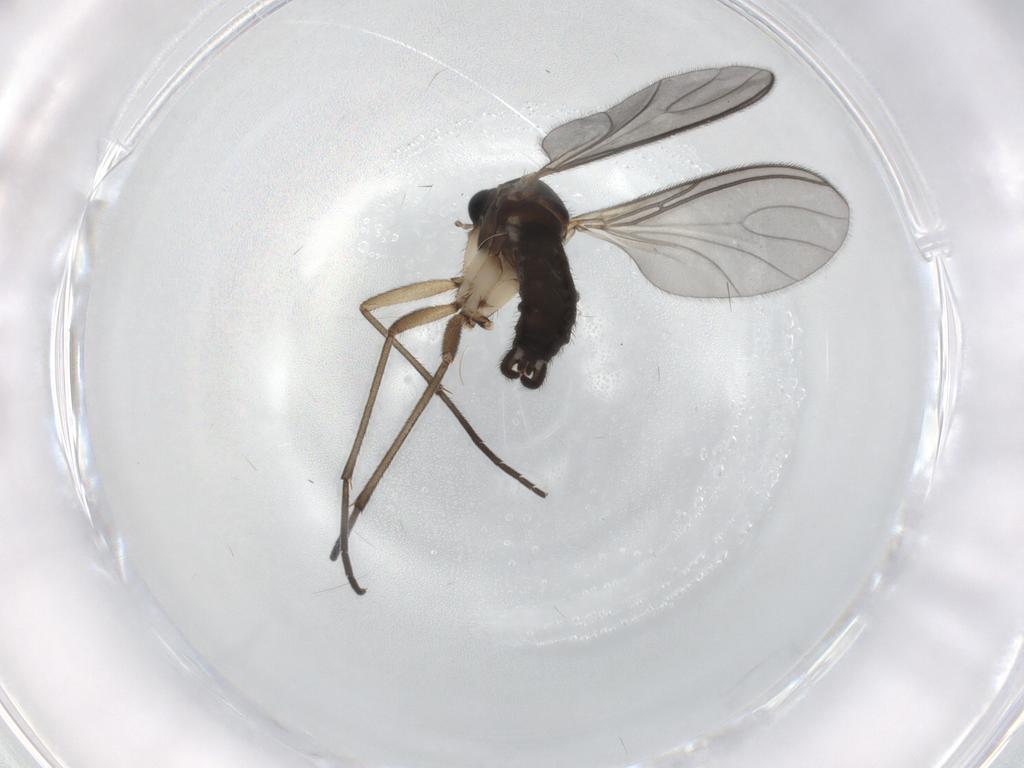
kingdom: Animalia
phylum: Arthropoda
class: Insecta
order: Diptera
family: Sciaridae
